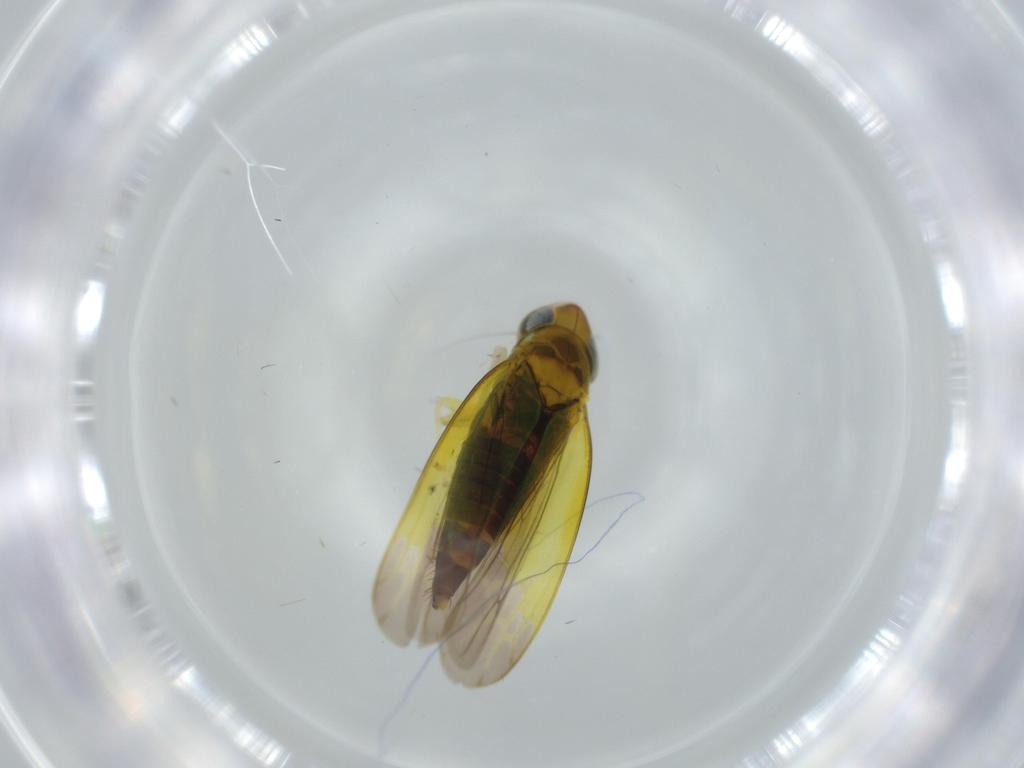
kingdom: Animalia
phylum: Arthropoda
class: Insecta
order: Hemiptera
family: Cicadellidae
